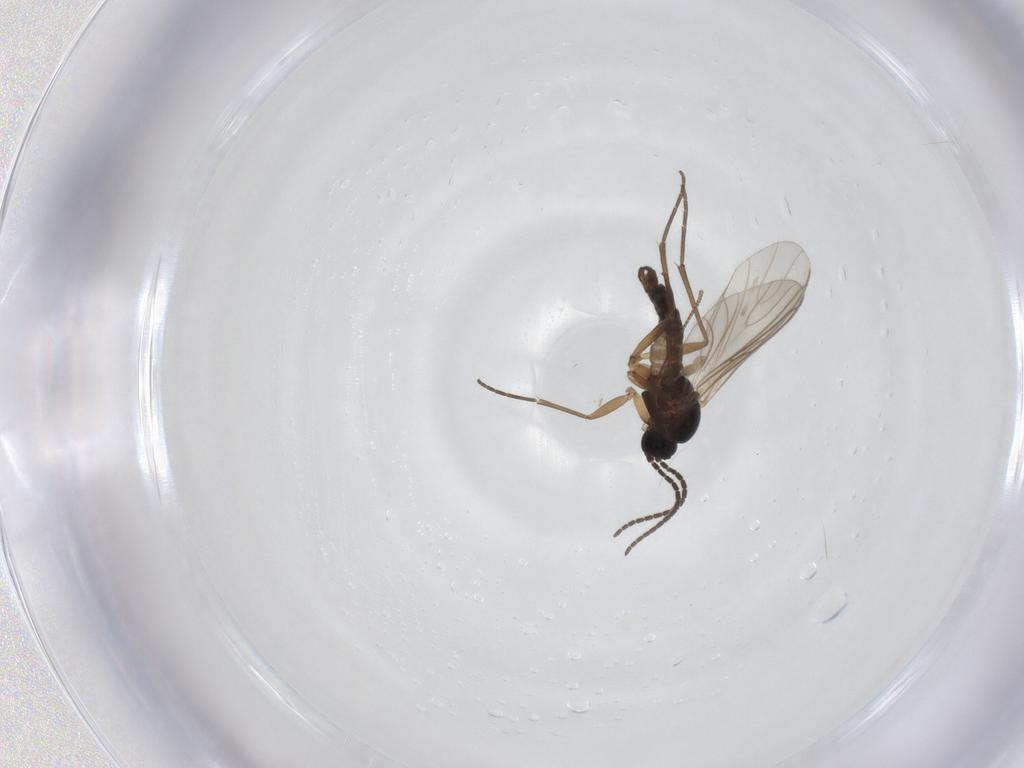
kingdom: Animalia
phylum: Arthropoda
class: Insecta
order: Diptera
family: Sciaridae
